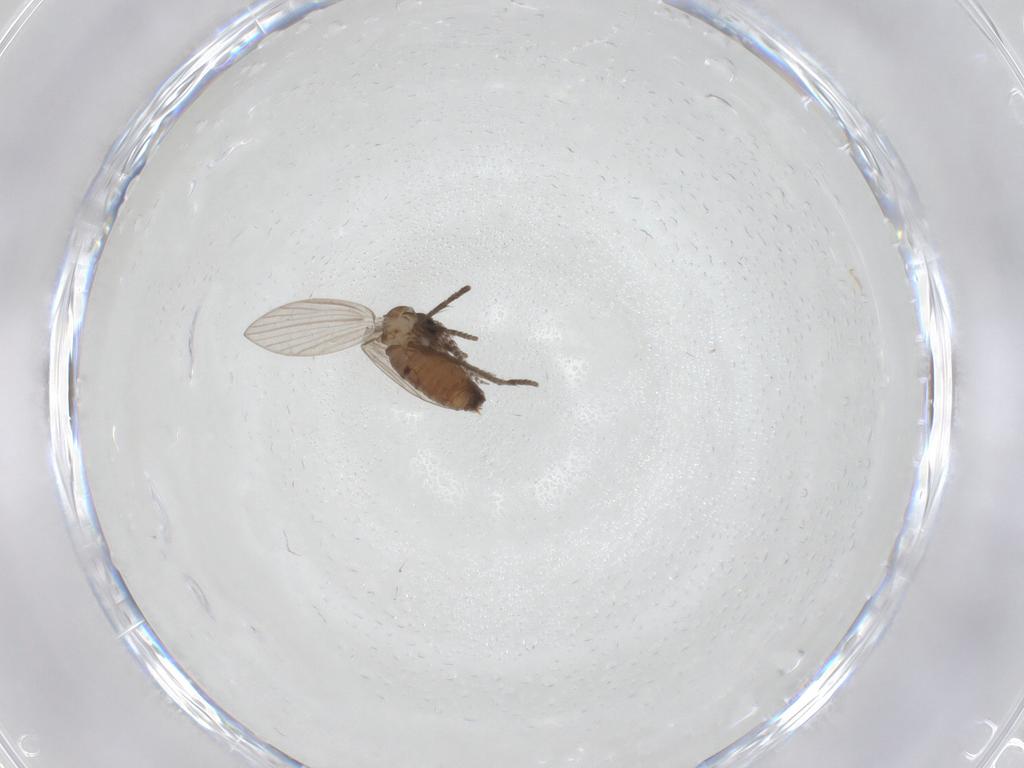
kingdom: Animalia
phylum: Arthropoda
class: Insecta
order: Diptera
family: Psychodidae
